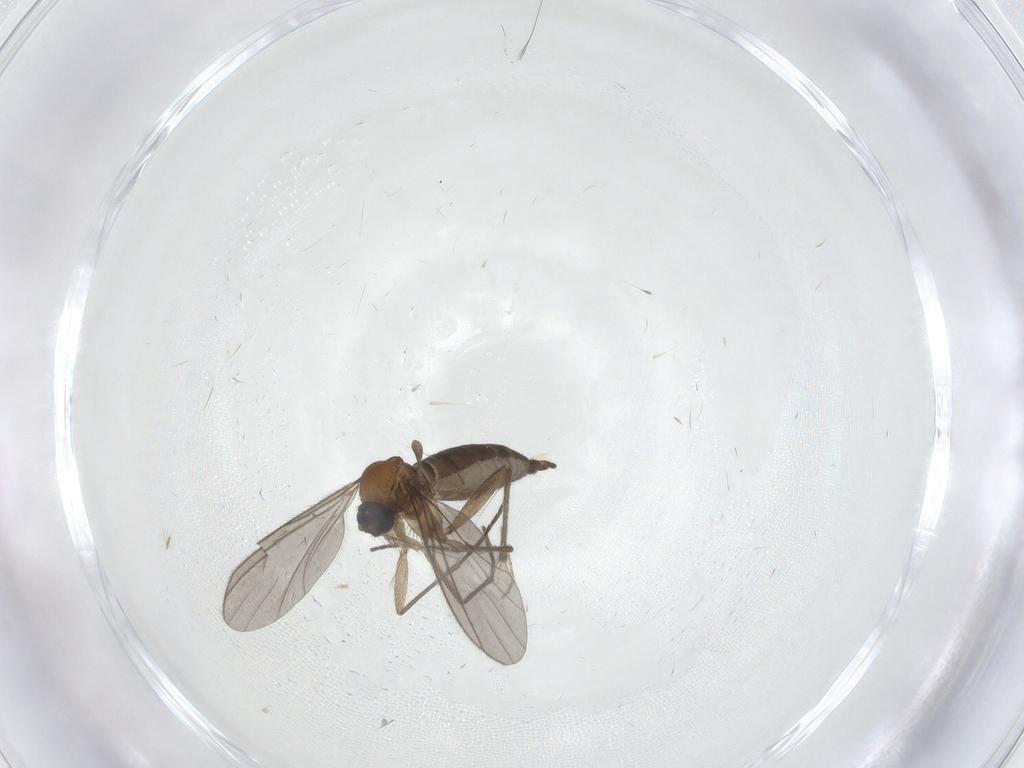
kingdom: Animalia
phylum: Arthropoda
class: Insecta
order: Diptera
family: Sciaridae
